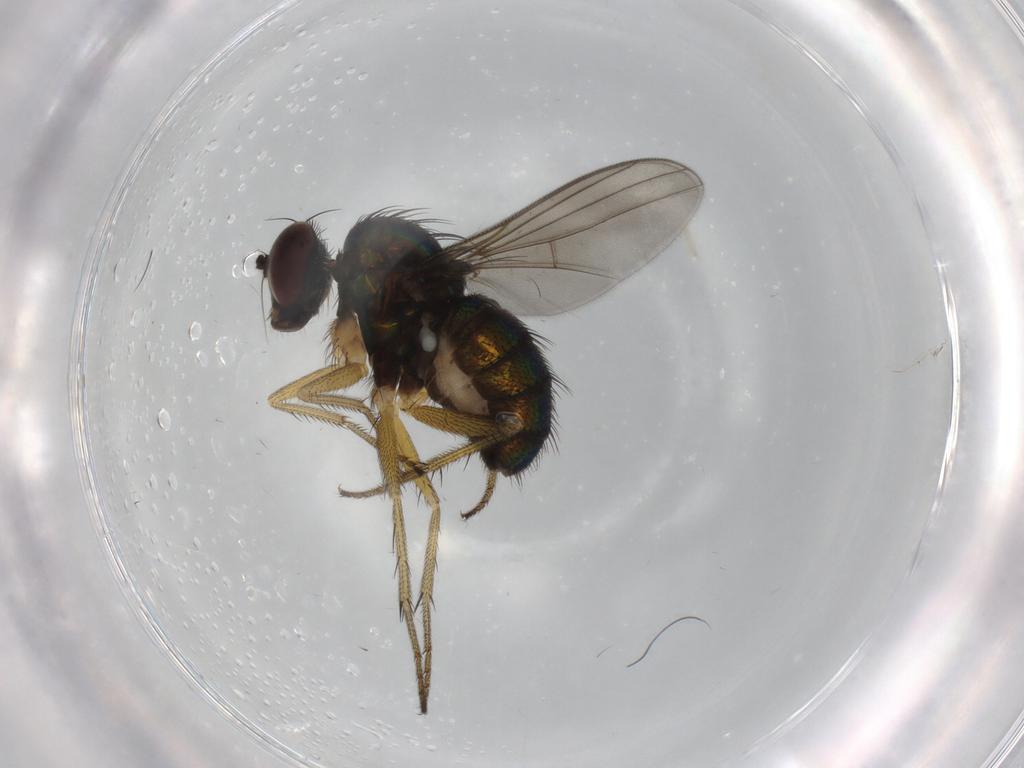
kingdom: Animalia
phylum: Arthropoda
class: Insecta
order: Diptera
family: Dolichopodidae
